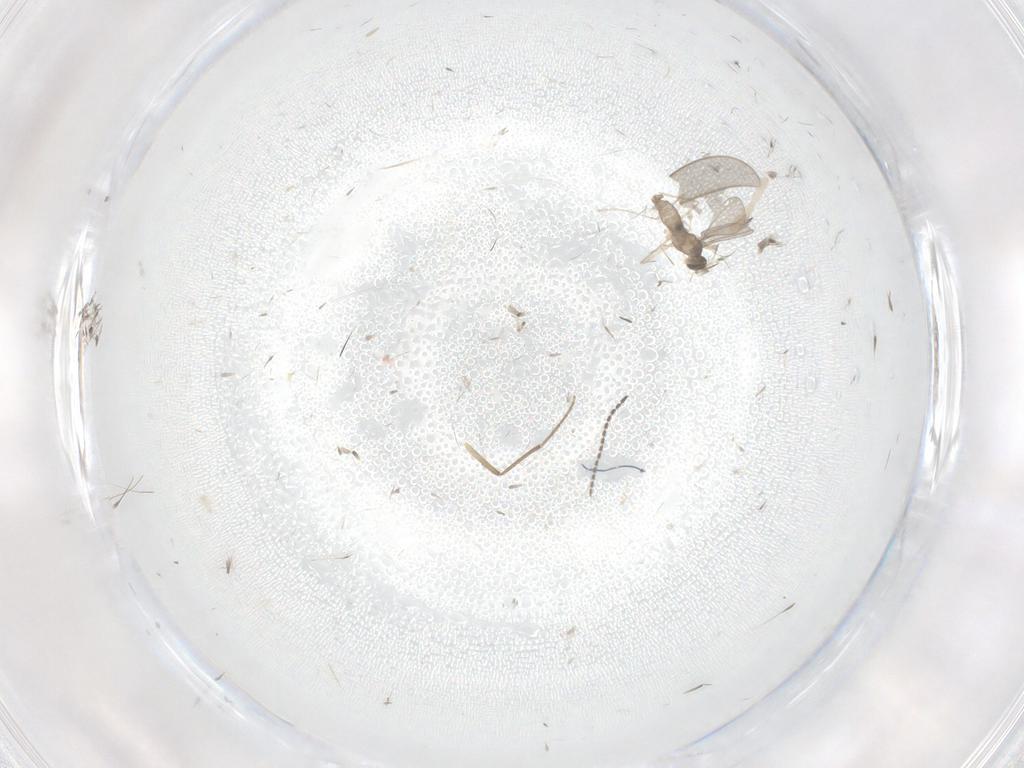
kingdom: Animalia
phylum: Arthropoda
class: Insecta
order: Diptera
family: Sciaridae
